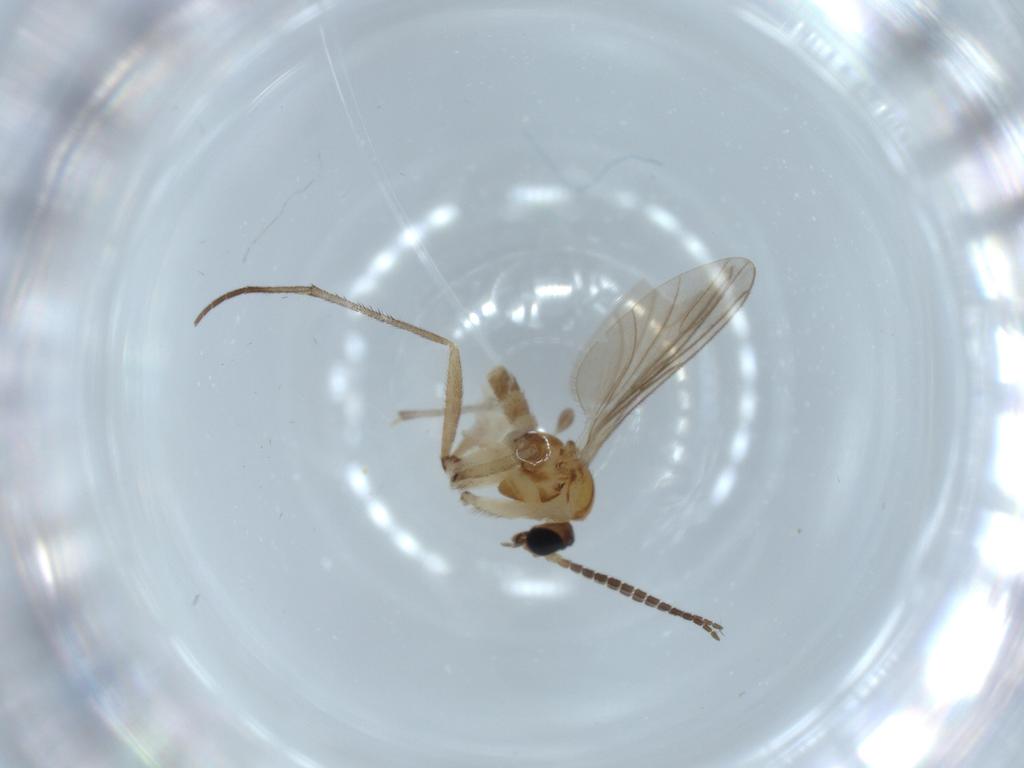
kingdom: Animalia
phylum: Arthropoda
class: Insecta
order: Diptera
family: Sciaridae
